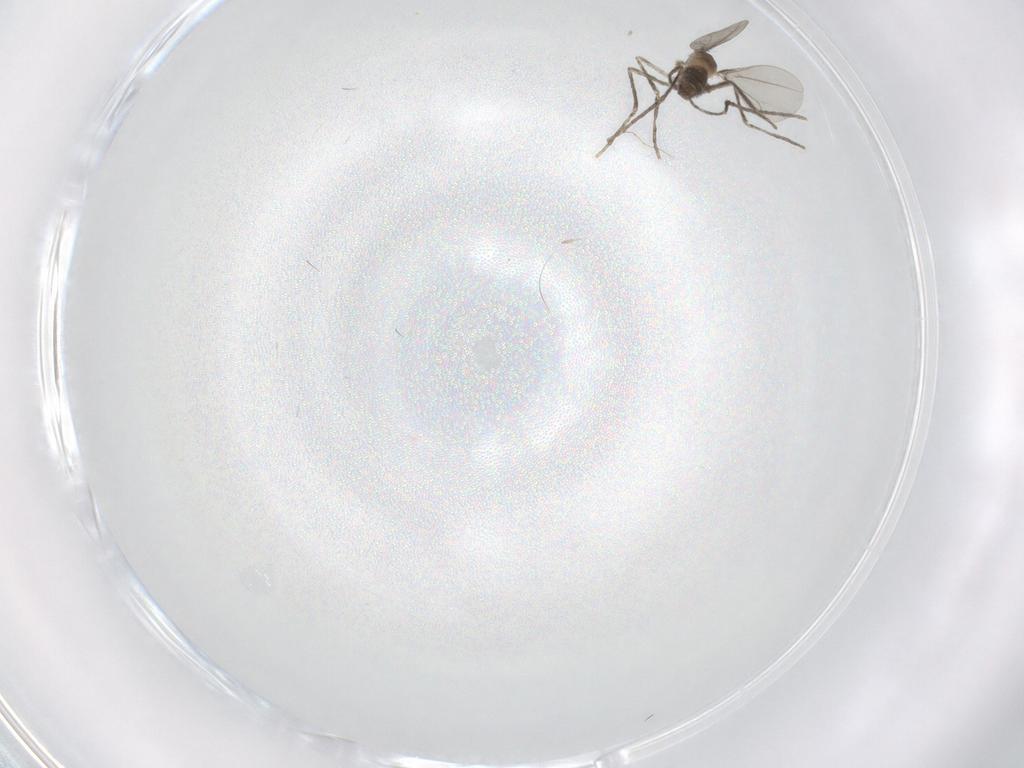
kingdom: Animalia
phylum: Arthropoda
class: Insecta
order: Diptera
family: Cecidomyiidae
